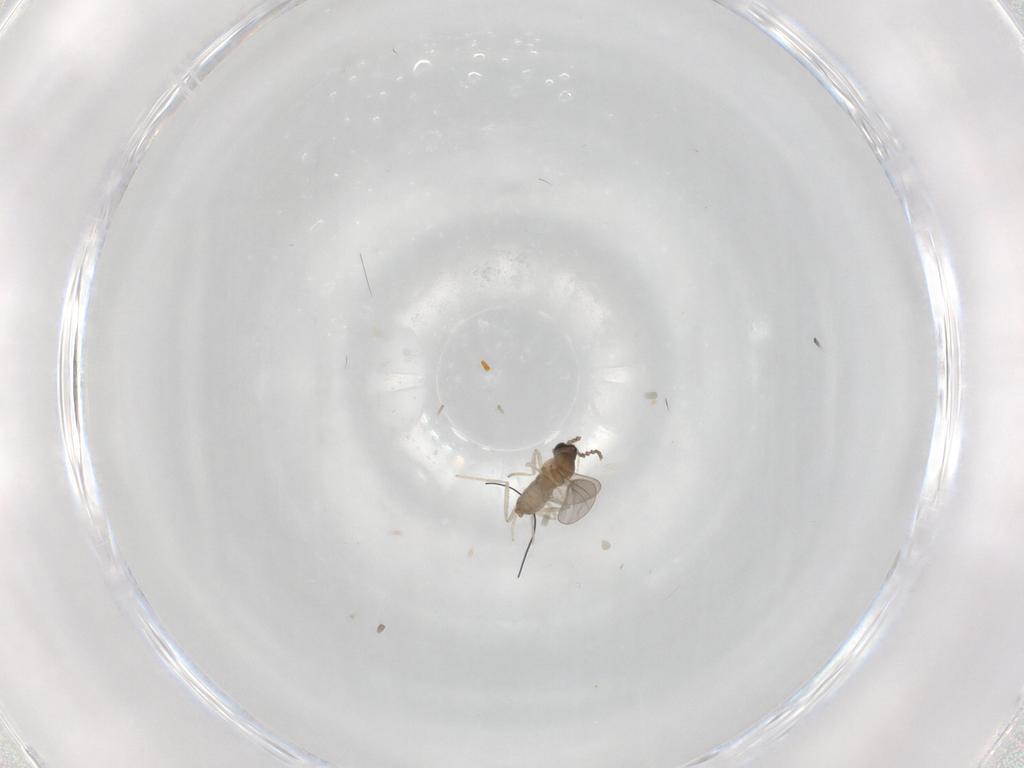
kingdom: Animalia
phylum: Arthropoda
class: Insecta
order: Diptera
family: Cecidomyiidae
